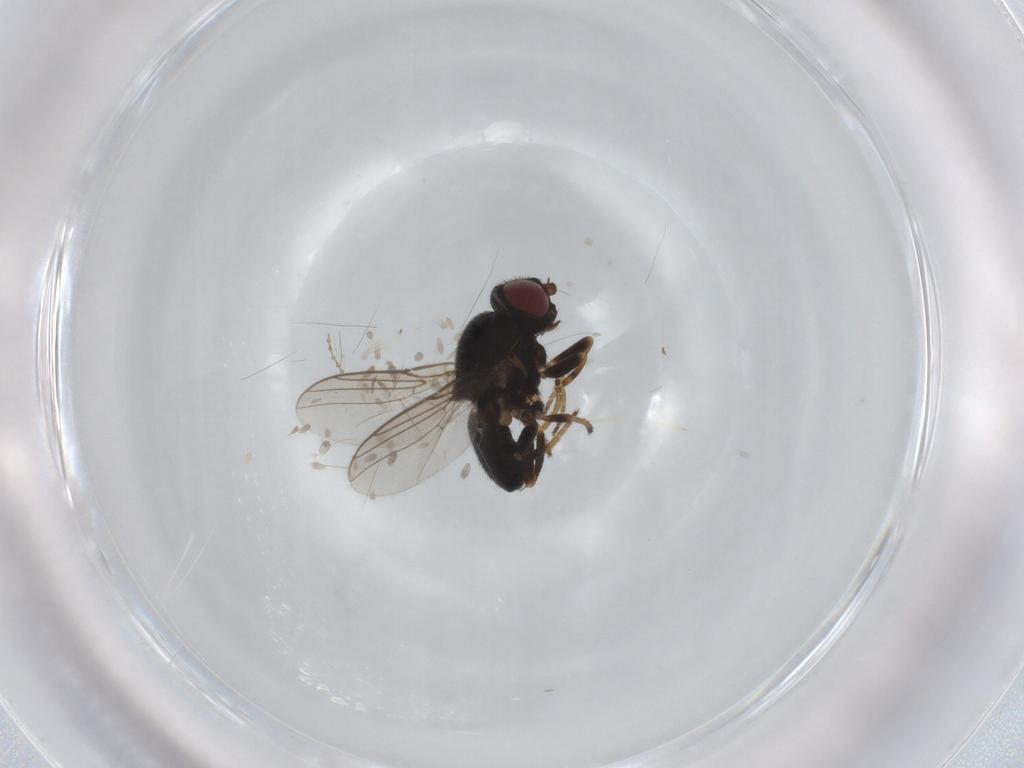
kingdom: Animalia
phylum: Arthropoda
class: Insecta
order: Diptera
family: Chloropidae
